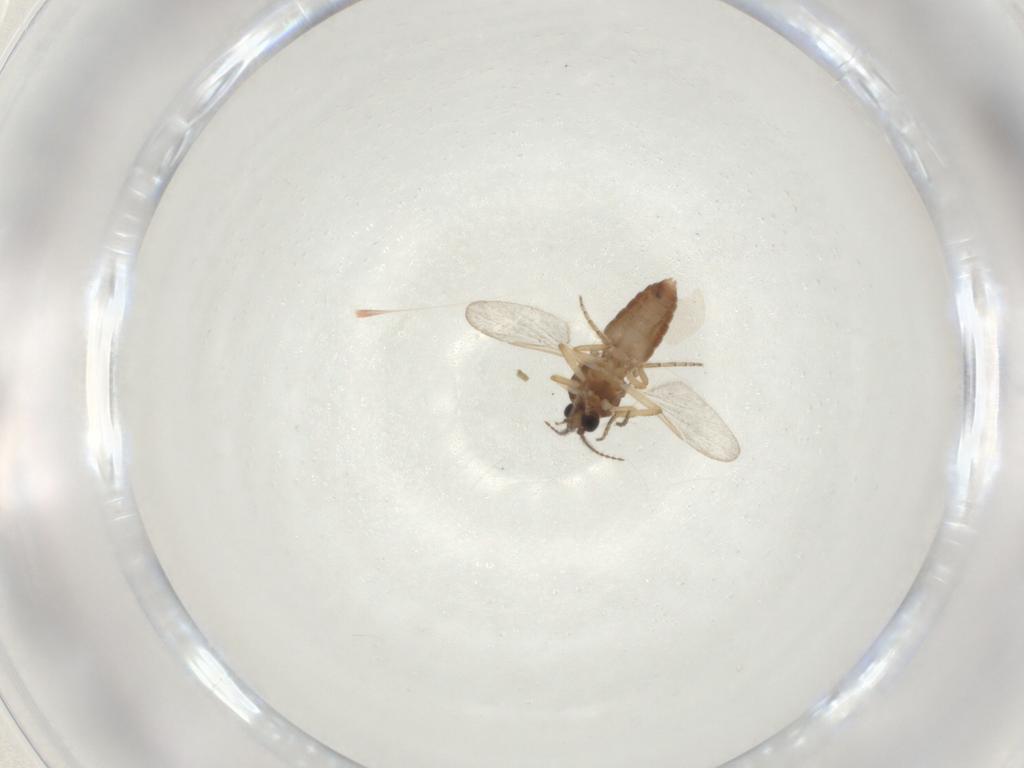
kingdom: Animalia
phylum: Arthropoda
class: Insecta
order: Diptera
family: Ceratopogonidae
